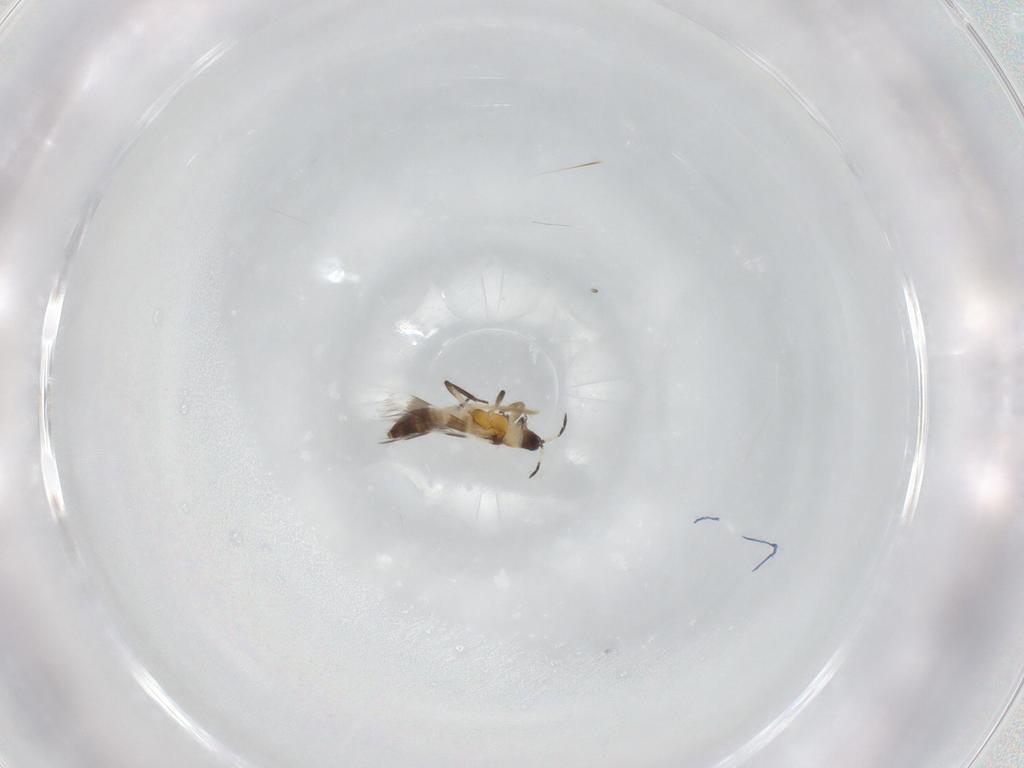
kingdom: Animalia
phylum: Arthropoda
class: Insecta
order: Thysanoptera
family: Aeolothripidae
